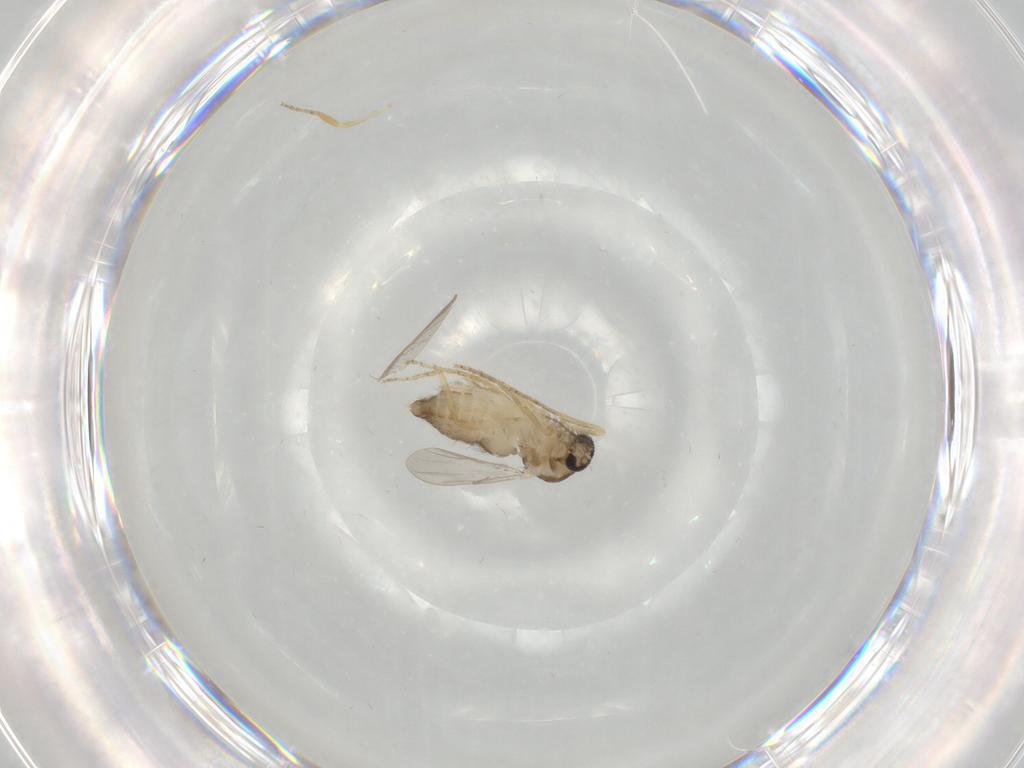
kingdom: Animalia
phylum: Arthropoda
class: Insecta
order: Diptera
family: Ceratopogonidae
